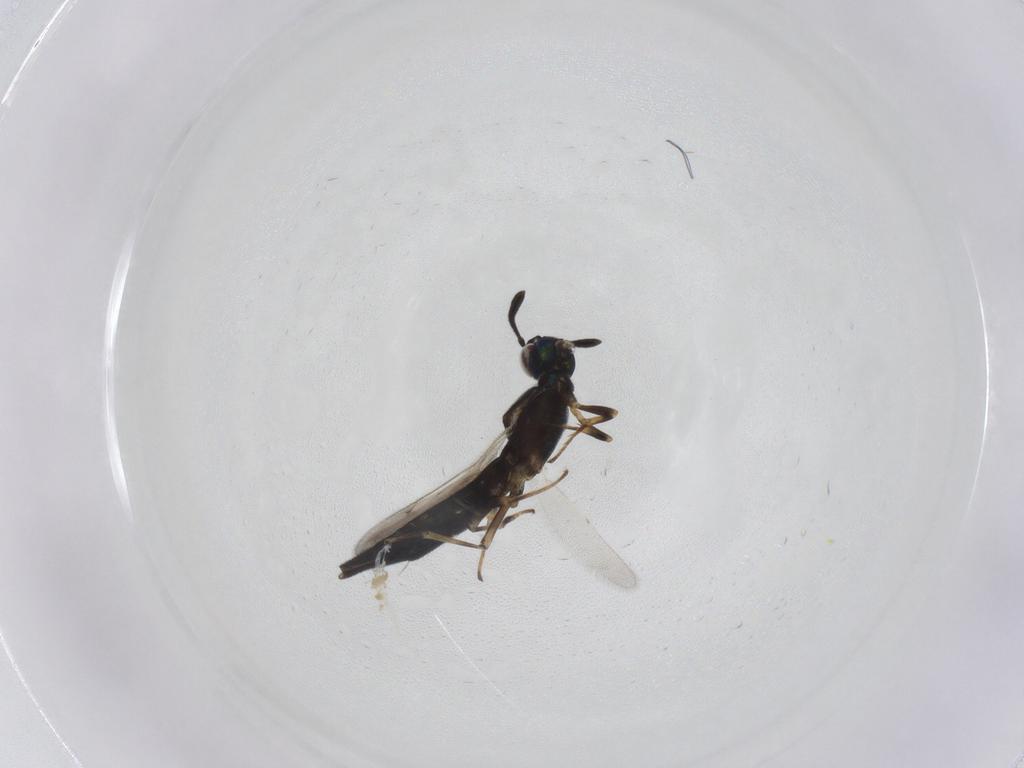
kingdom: Animalia
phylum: Arthropoda
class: Insecta
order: Hymenoptera
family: Eupelmidae
